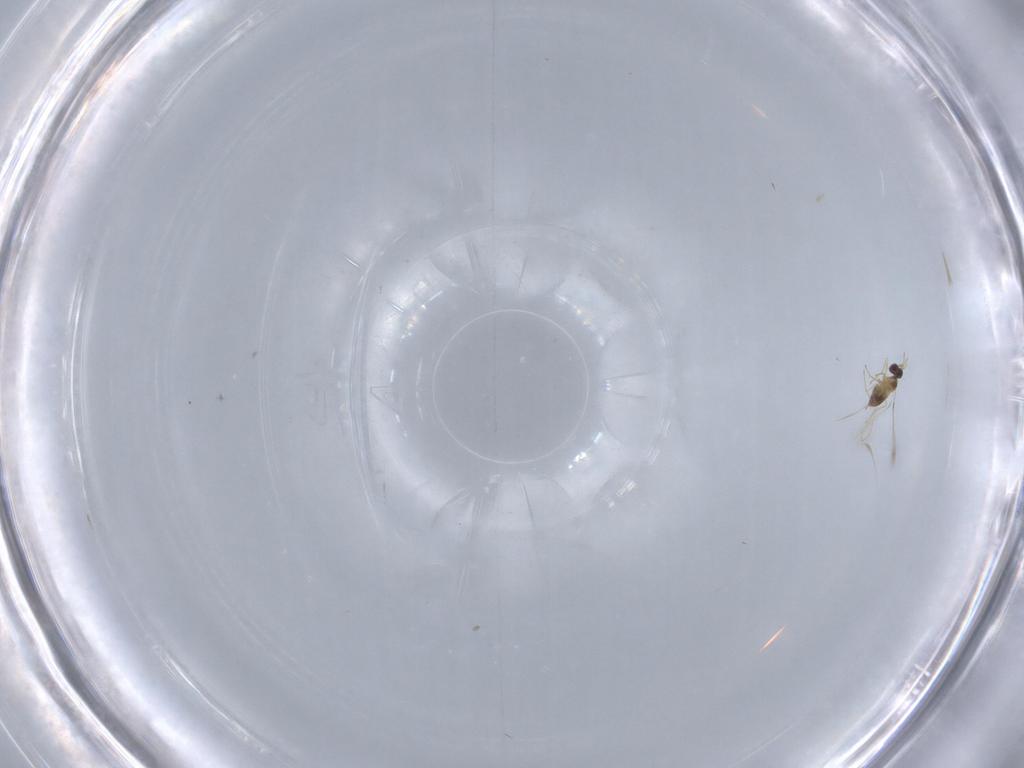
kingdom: Animalia
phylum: Arthropoda
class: Insecta
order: Hymenoptera
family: Mymaridae
